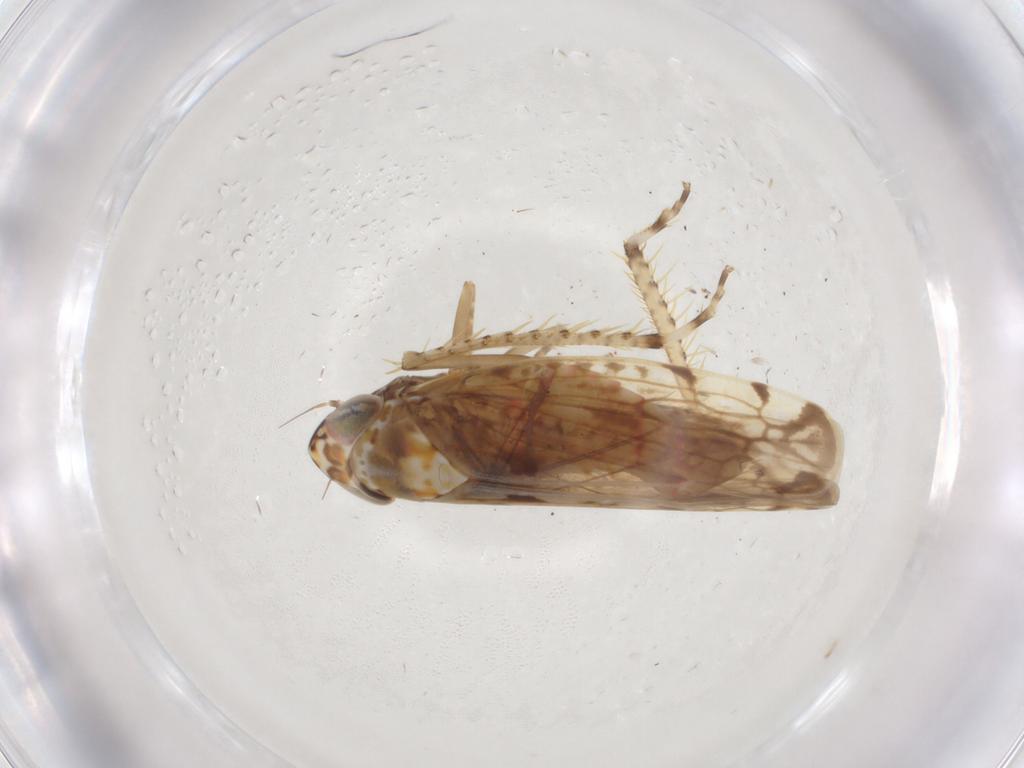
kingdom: Animalia
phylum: Arthropoda
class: Insecta
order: Hemiptera
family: Cicadellidae
